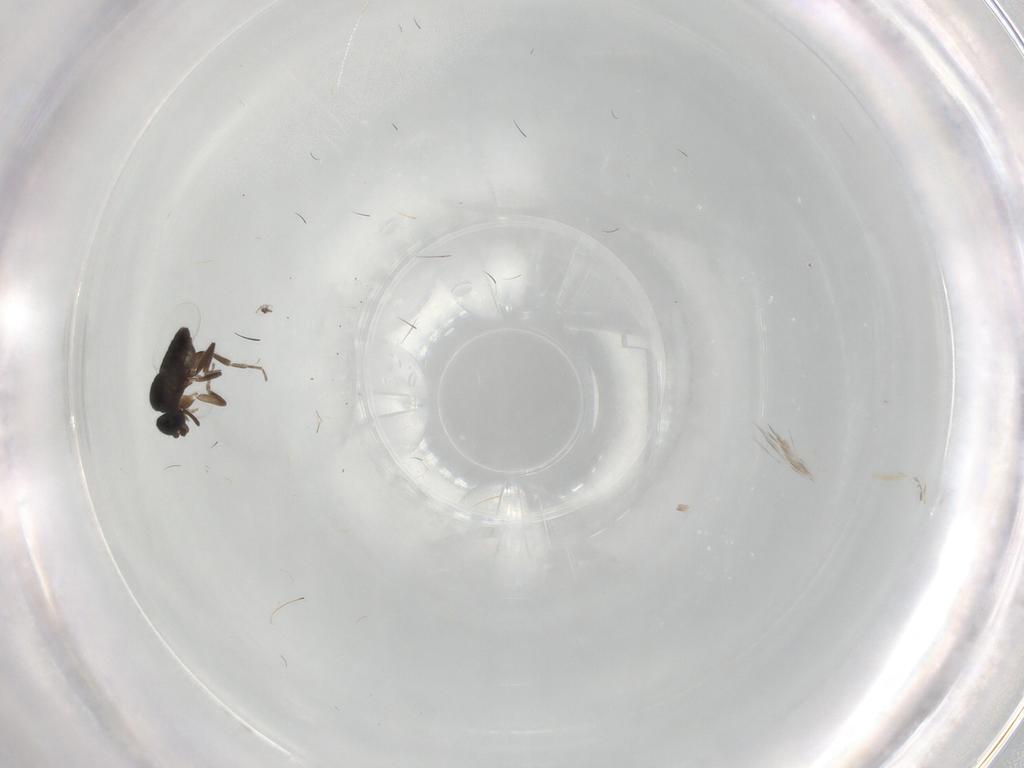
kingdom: Animalia
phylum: Arthropoda
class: Insecta
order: Diptera
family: Phoridae
